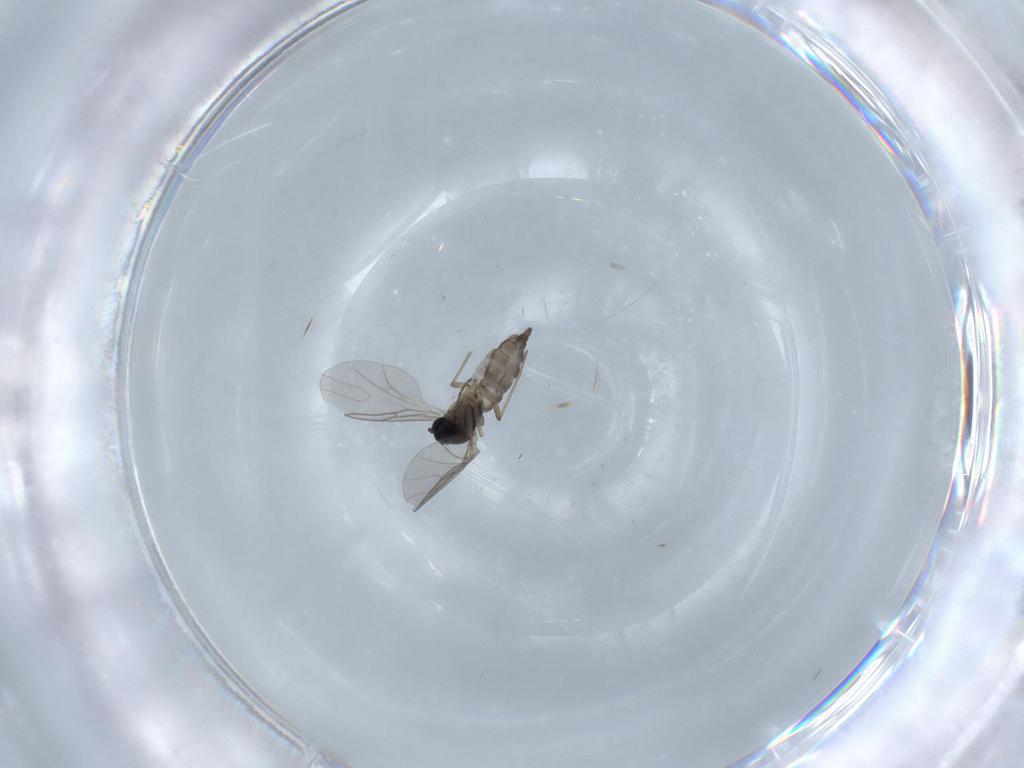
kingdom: Animalia
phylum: Arthropoda
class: Insecta
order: Diptera
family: Sciaridae
